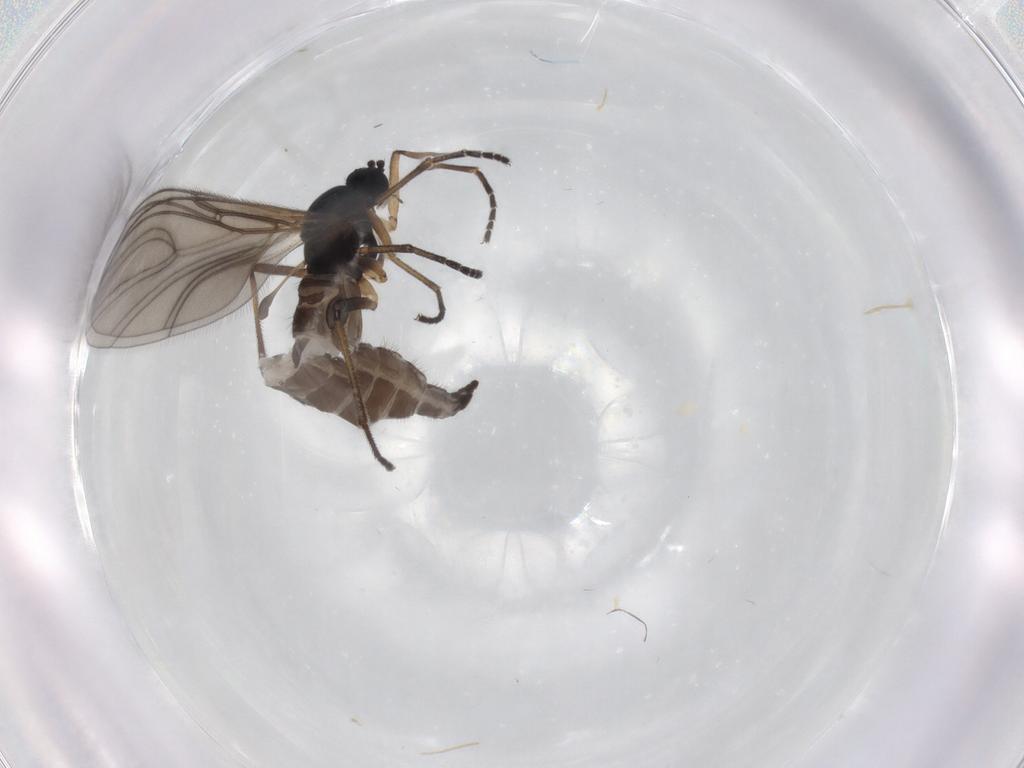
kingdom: Animalia
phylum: Arthropoda
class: Insecta
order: Diptera
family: Sciaridae
